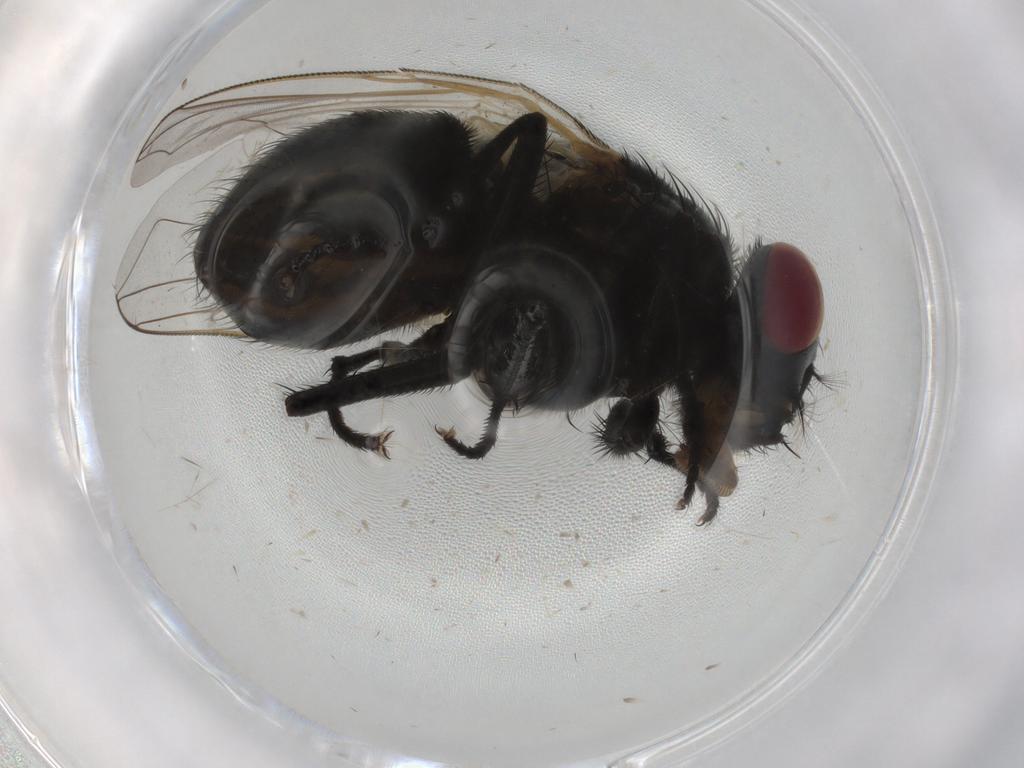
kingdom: Animalia
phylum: Arthropoda
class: Insecta
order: Diptera
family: Muscidae
